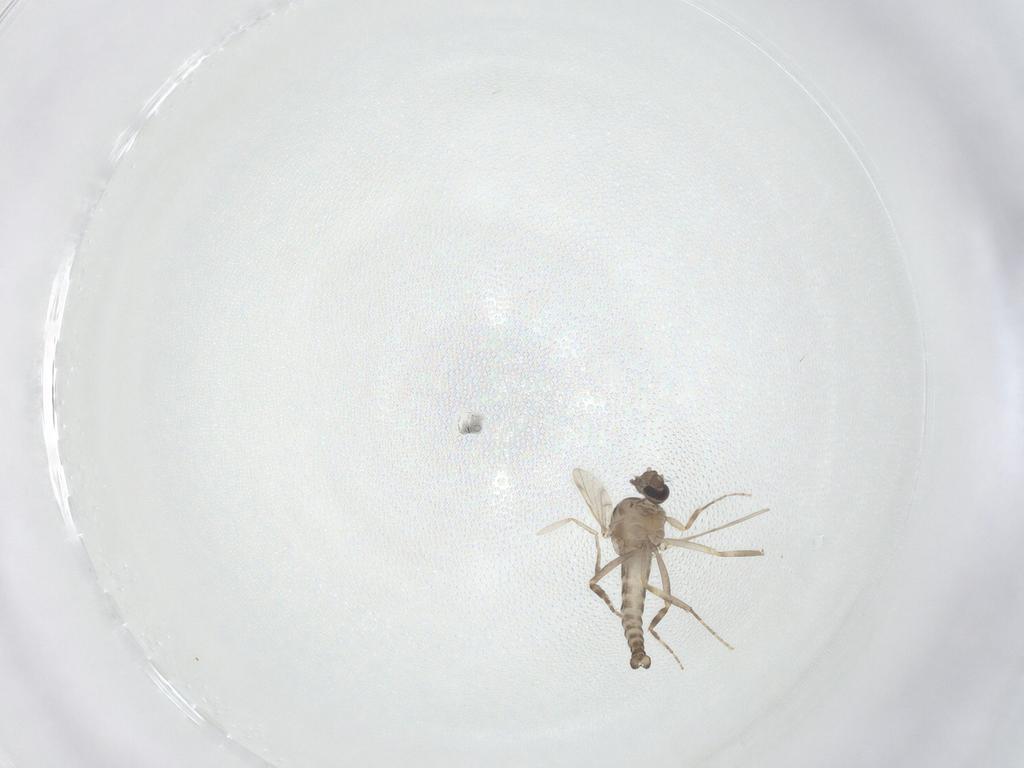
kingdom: Animalia
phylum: Arthropoda
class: Insecta
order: Diptera
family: Ceratopogonidae
